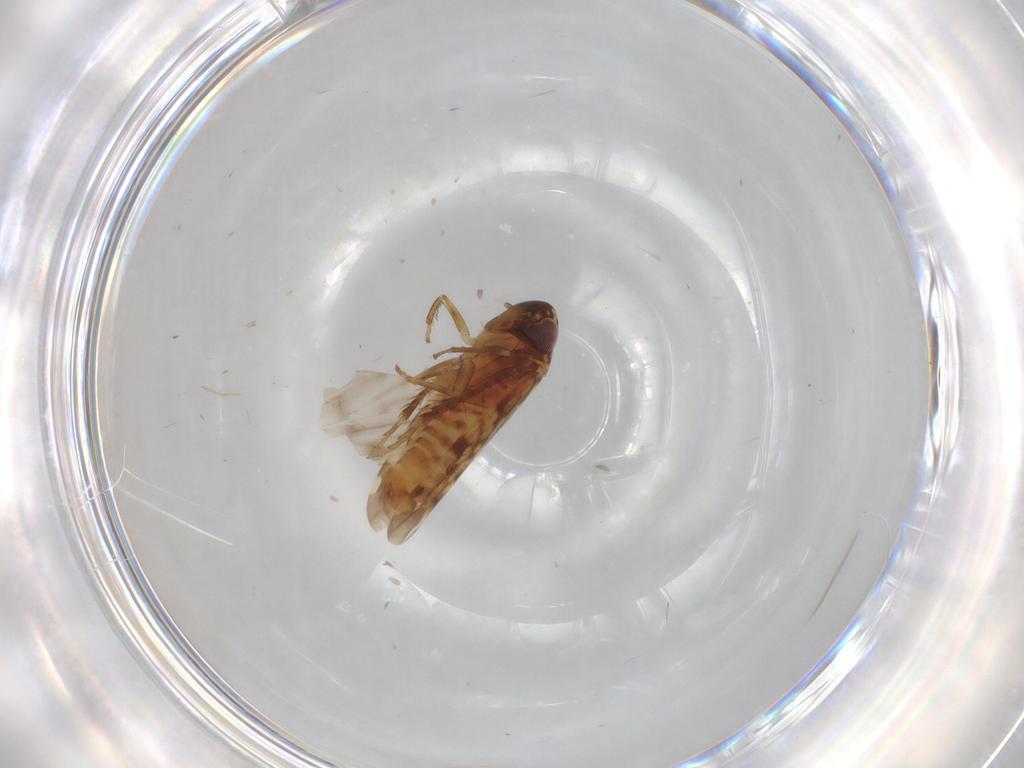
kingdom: Animalia
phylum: Arthropoda
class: Insecta
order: Hemiptera
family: Cicadellidae
